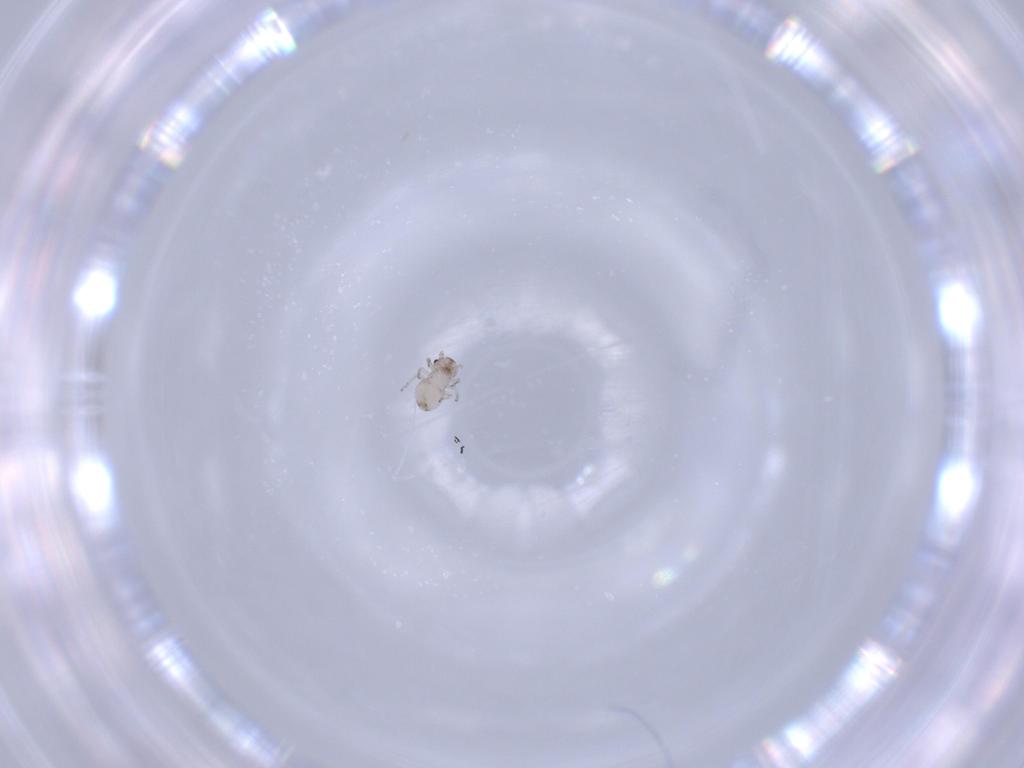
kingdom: Animalia
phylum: Arthropoda
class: Insecta
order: Psocodea
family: Psocidae
